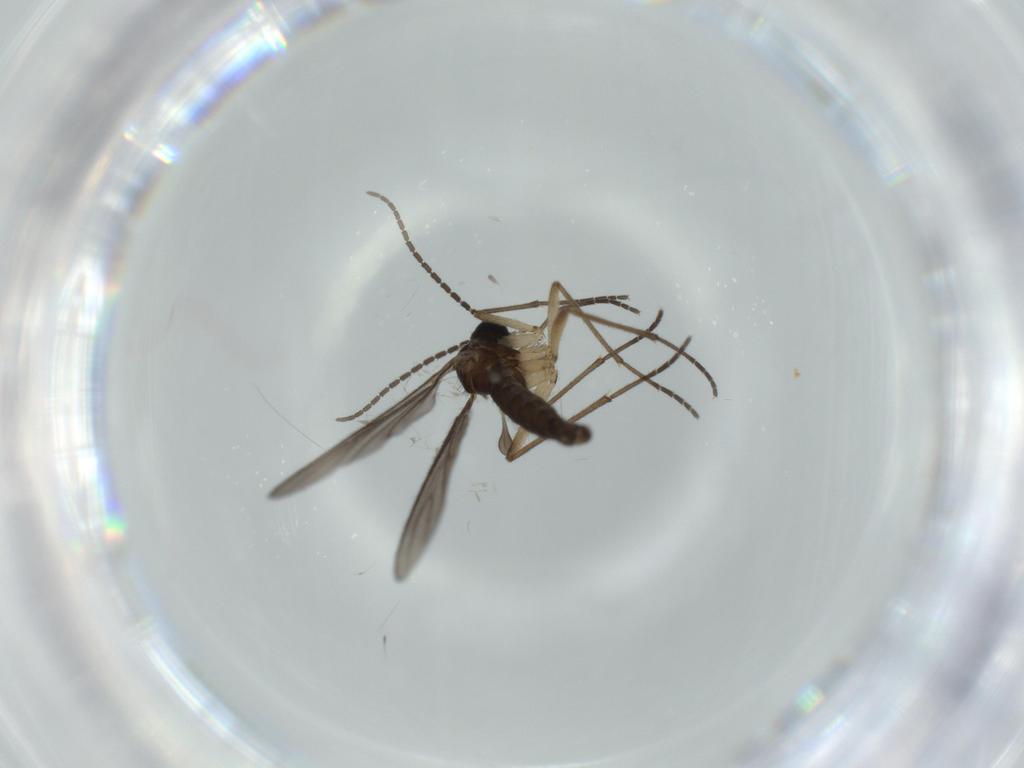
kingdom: Animalia
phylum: Arthropoda
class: Insecta
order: Diptera
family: Sciaridae
